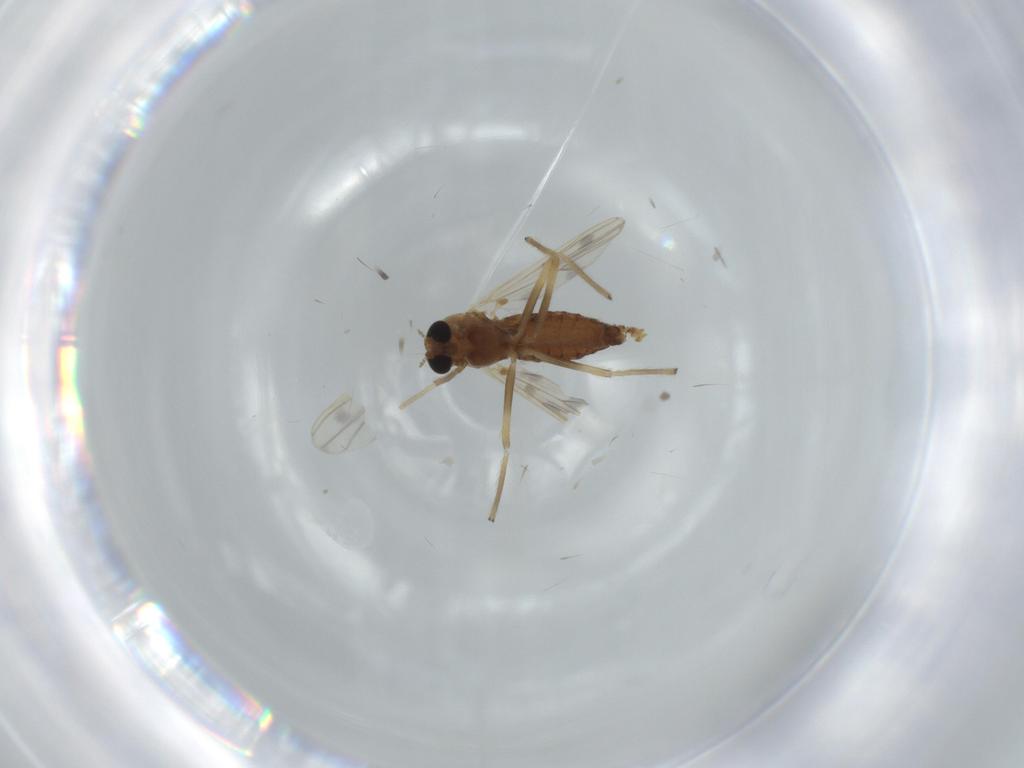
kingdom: Animalia
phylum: Arthropoda
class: Insecta
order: Diptera
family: Chironomidae
